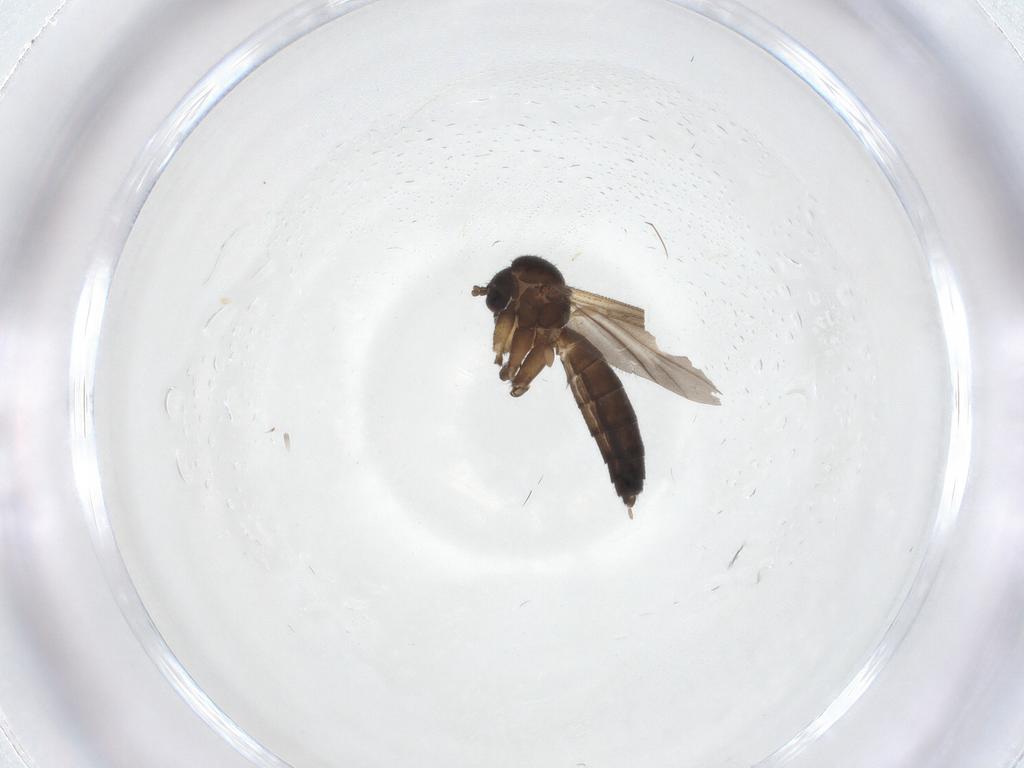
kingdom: Animalia
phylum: Arthropoda
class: Insecta
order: Diptera
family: Mycetophilidae
